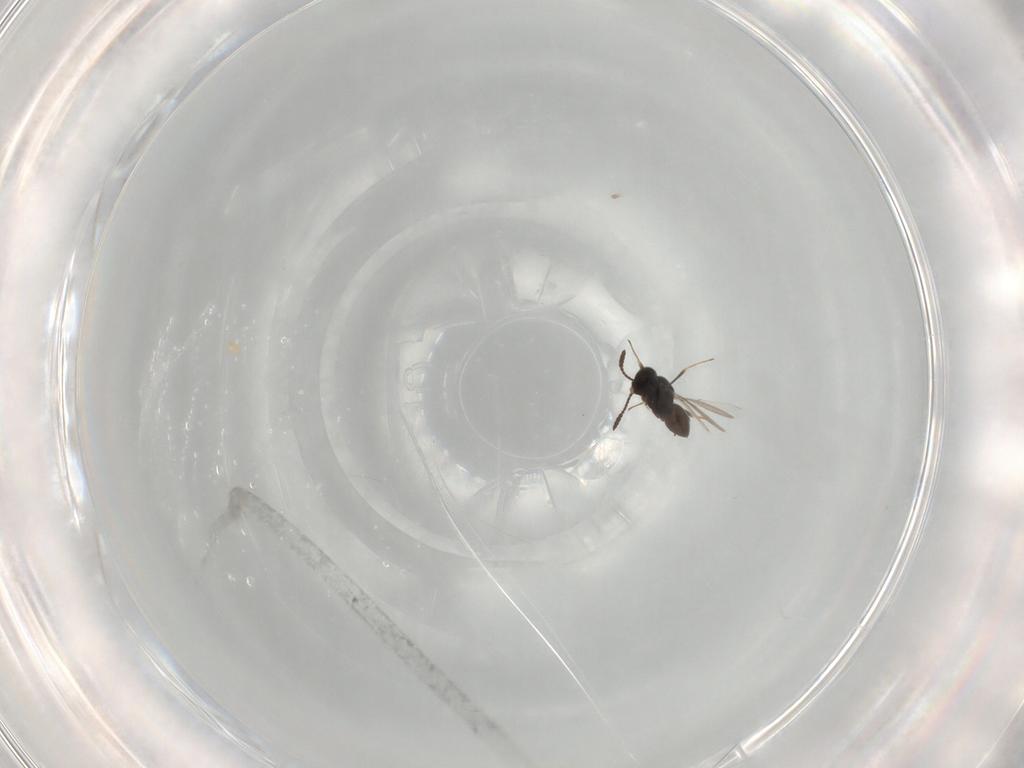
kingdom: Animalia
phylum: Arthropoda
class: Insecta
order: Hymenoptera
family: Scelionidae
